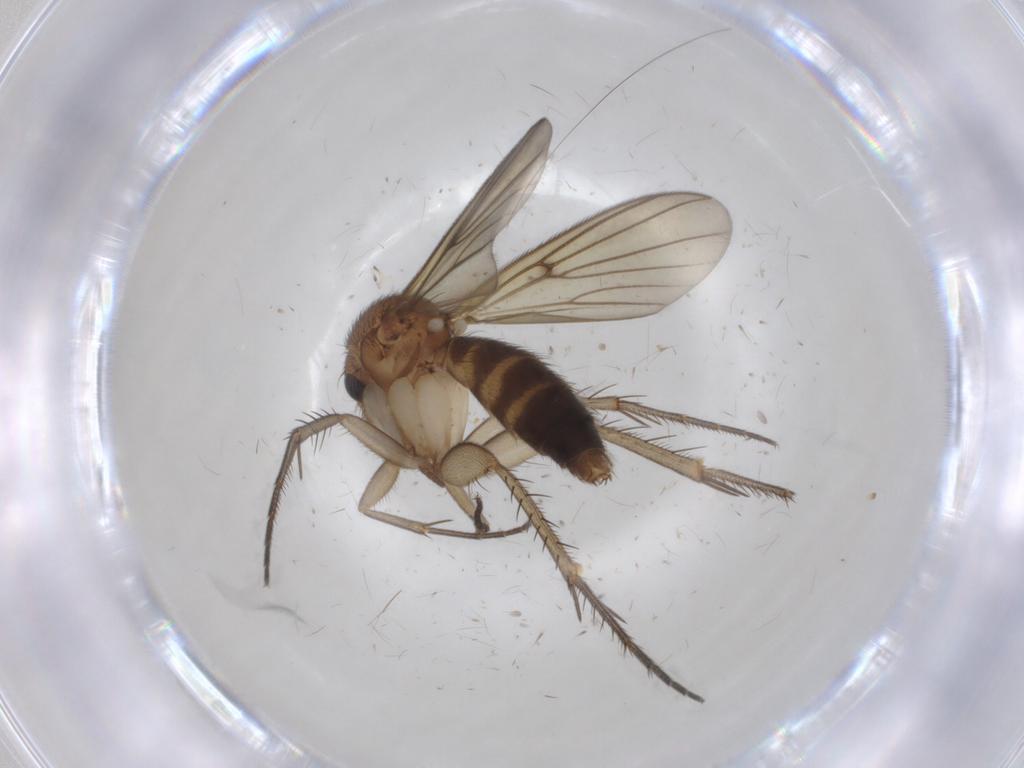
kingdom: Animalia
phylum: Arthropoda
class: Insecta
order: Diptera
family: Mycetophilidae
